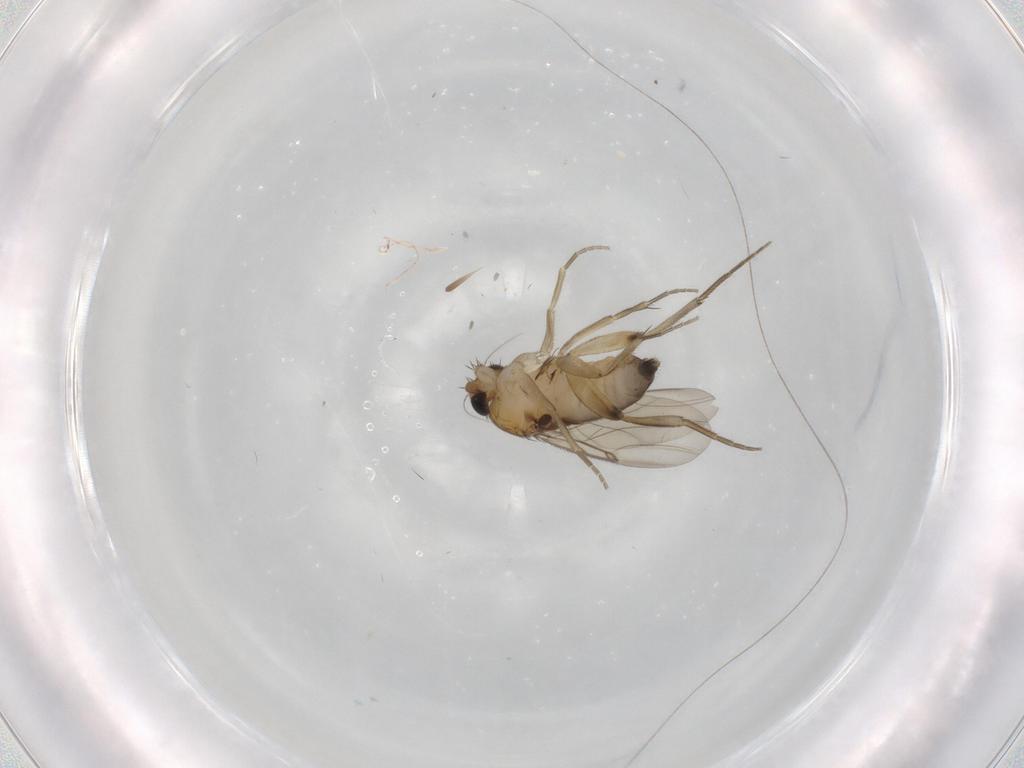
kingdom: Animalia
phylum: Arthropoda
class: Insecta
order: Diptera
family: Phoridae
